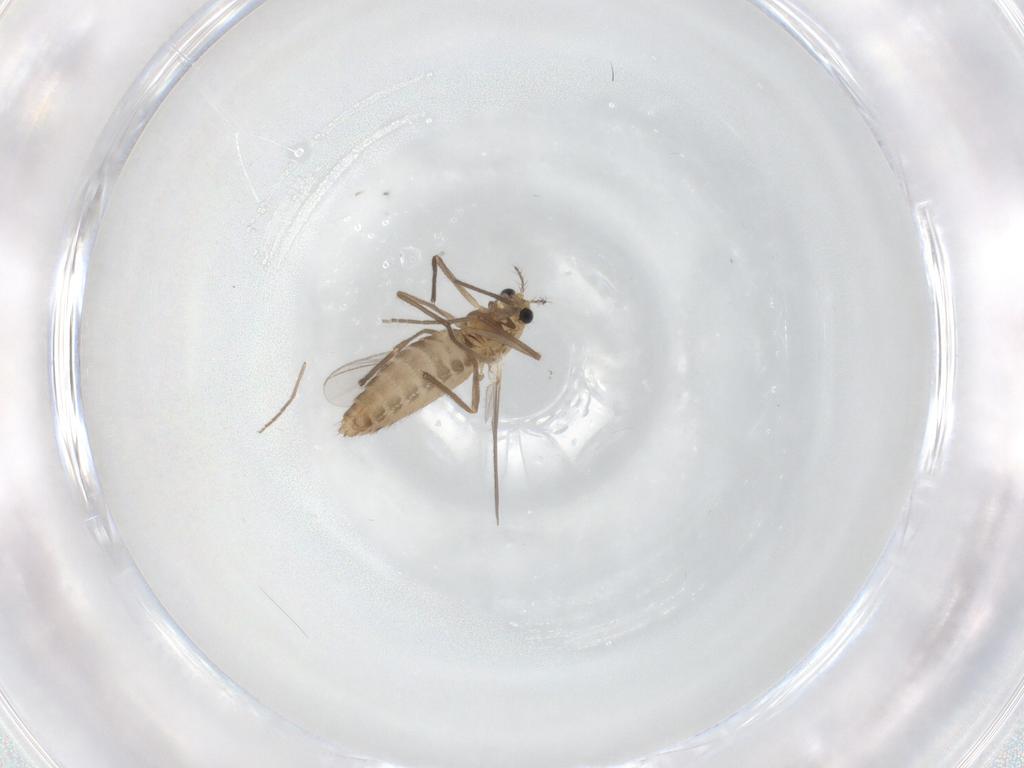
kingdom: Animalia
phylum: Arthropoda
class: Insecta
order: Diptera
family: Chironomidae
